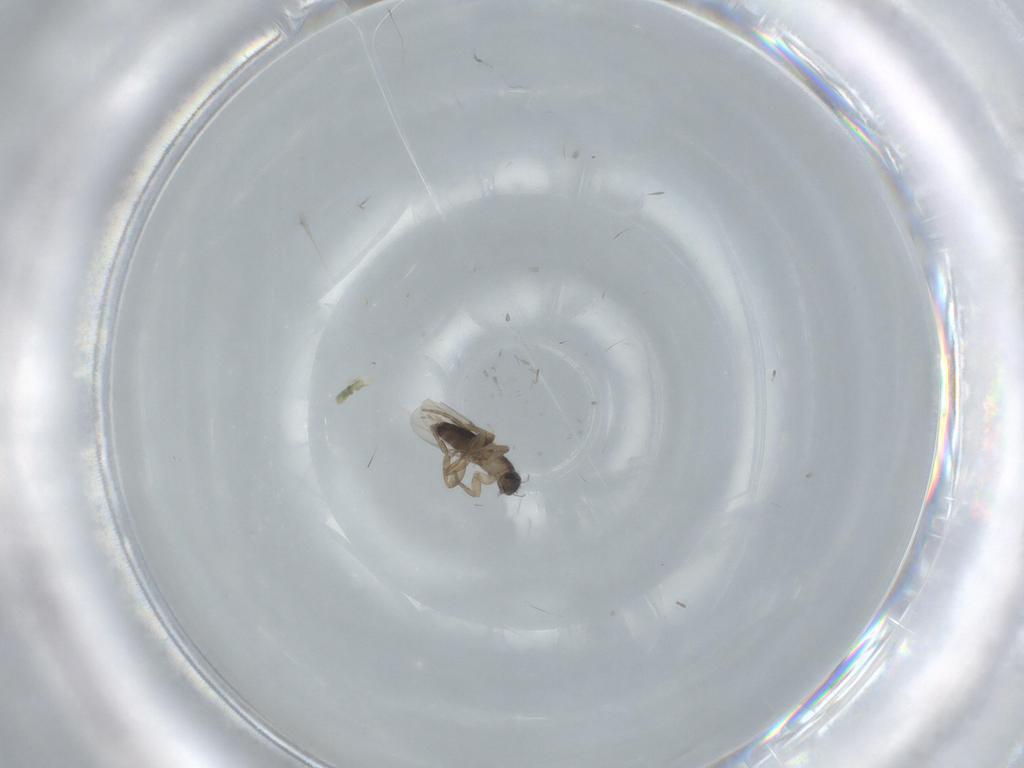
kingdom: Animalia
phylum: Arthropoda
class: Insecta
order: Diptera
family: Phoridae
